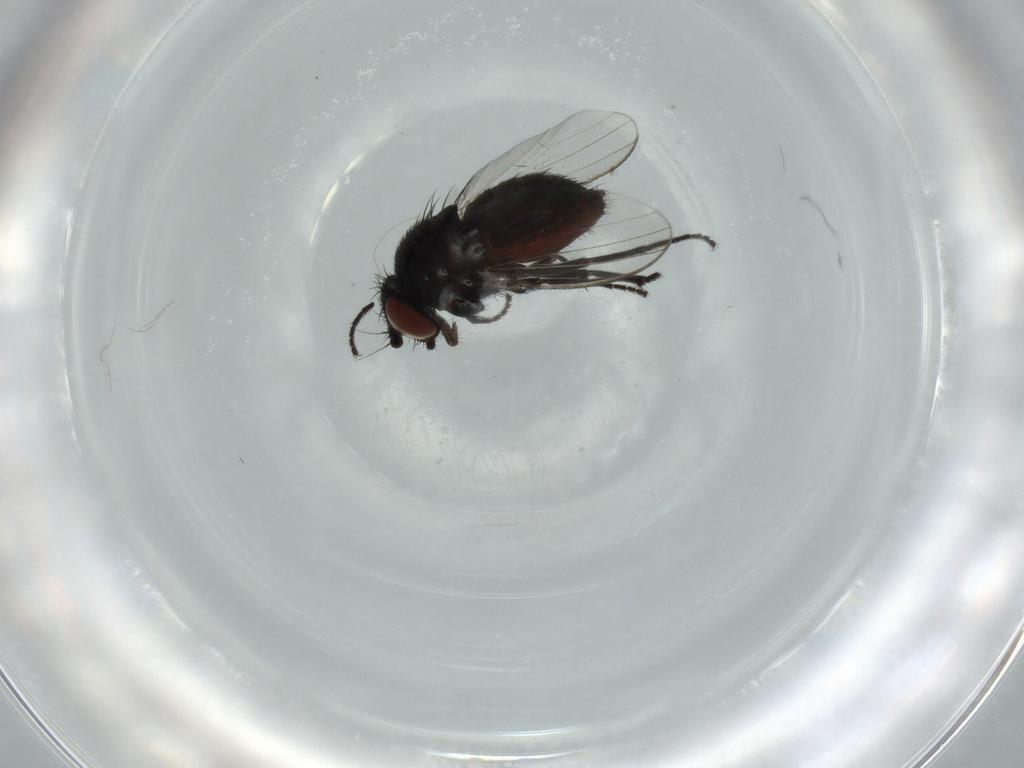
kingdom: Animalia
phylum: Arthropoda
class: Insecta
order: Diptera
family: Milichiidae
